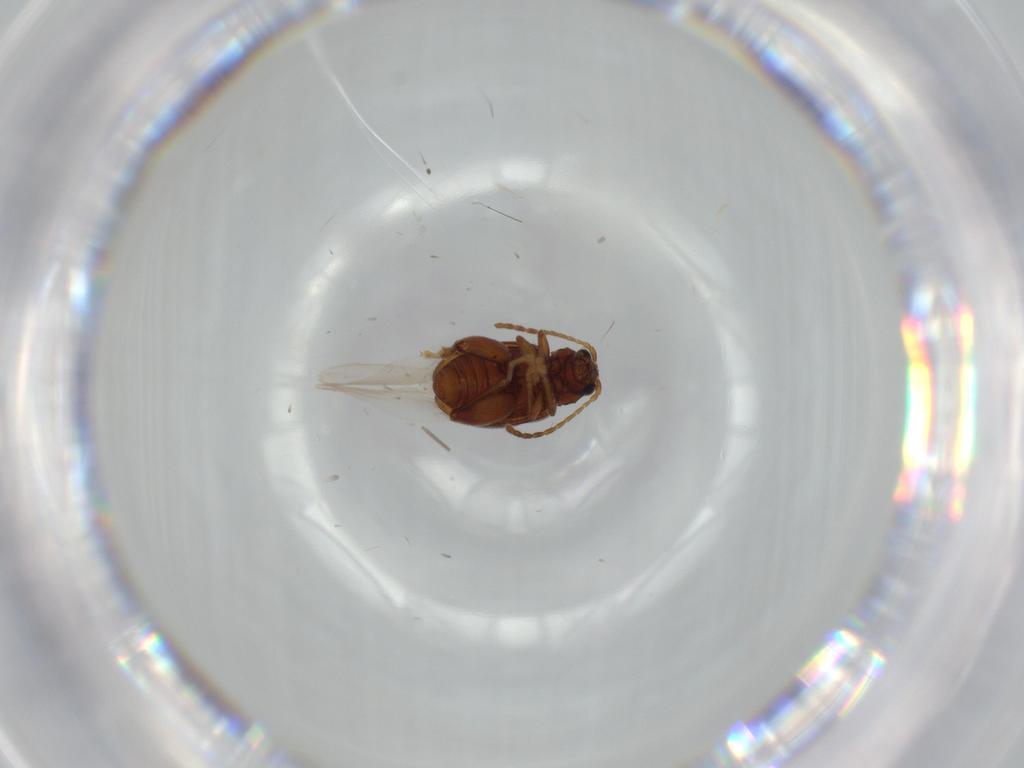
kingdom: Animalia
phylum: Arthropoda
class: Insecta
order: Coleoptera
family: Chrysomelidae
